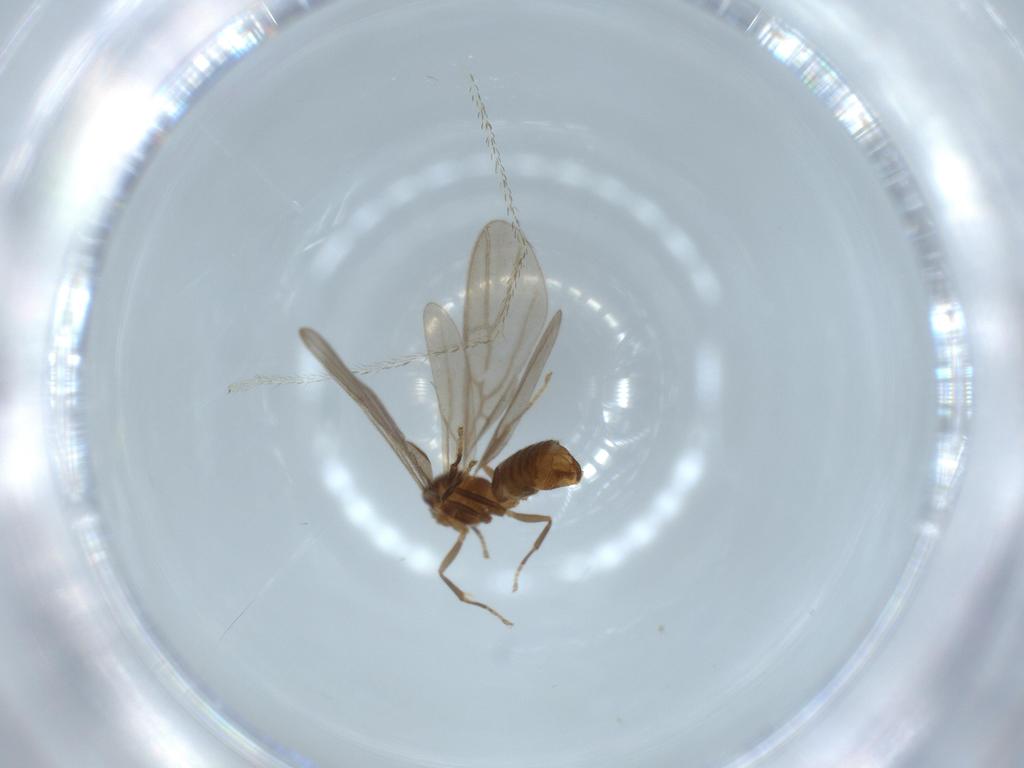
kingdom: Animalia
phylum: Arthropoda
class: Insecta
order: Hymenoptera
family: Formicidae
